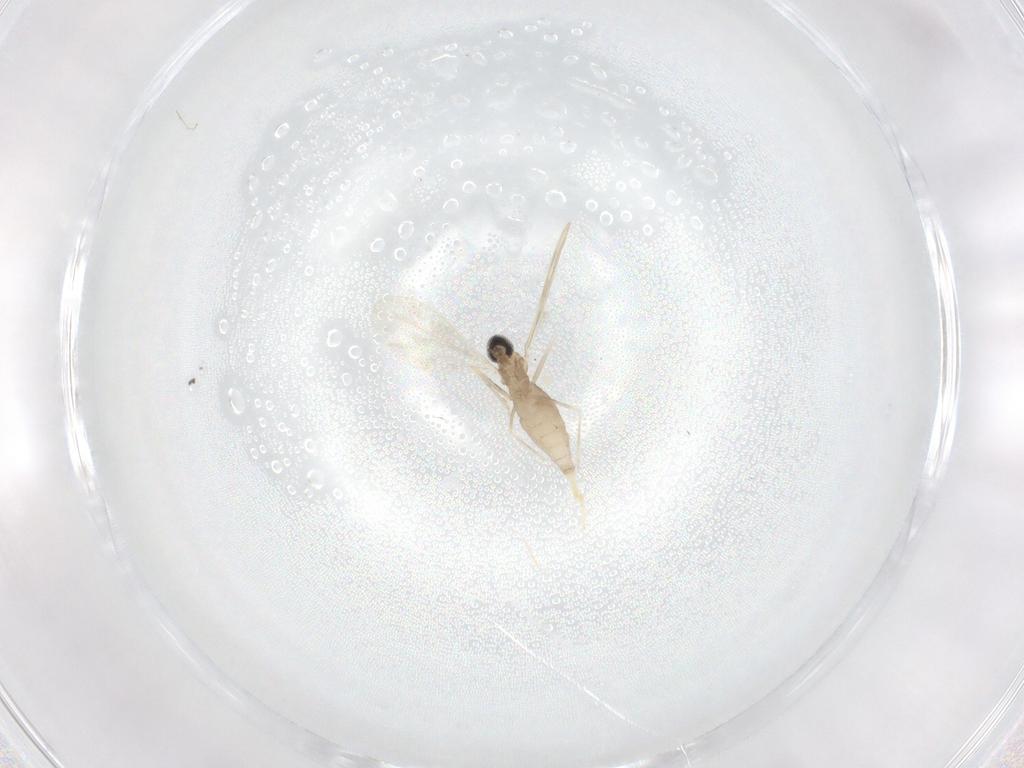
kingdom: Animalia
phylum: Arthropoda
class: Insecta
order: Diptera
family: Cecidomyiidae
